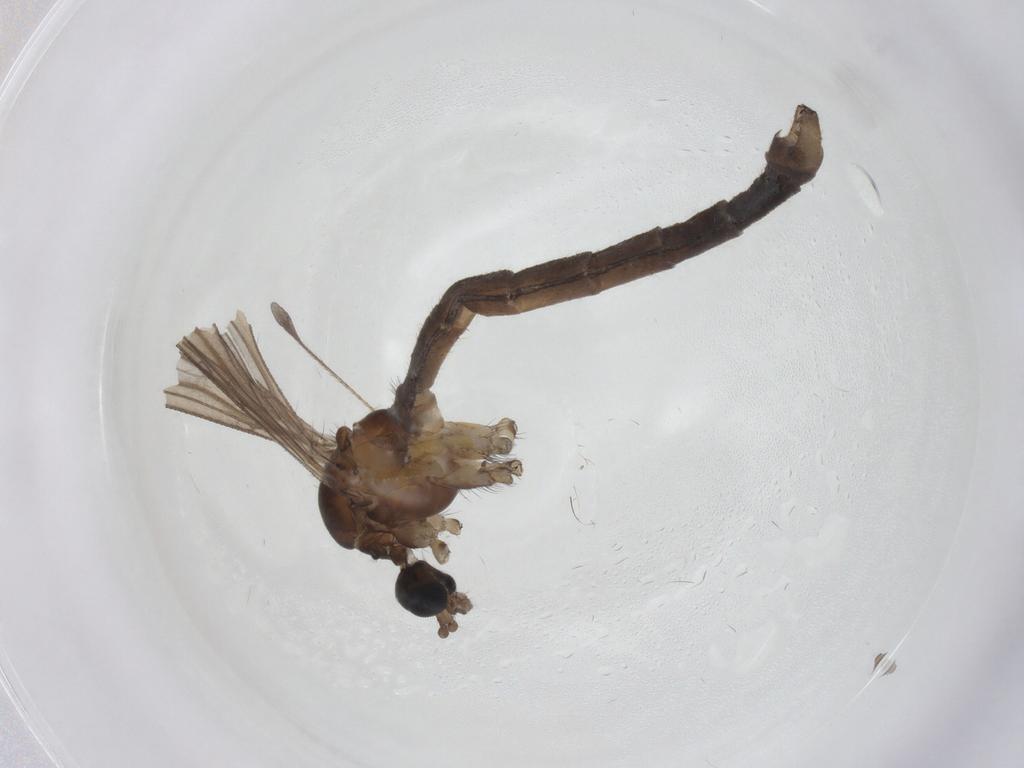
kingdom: Animalia
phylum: Arthropoda
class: Insecta
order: Diptera
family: Limoniidae
